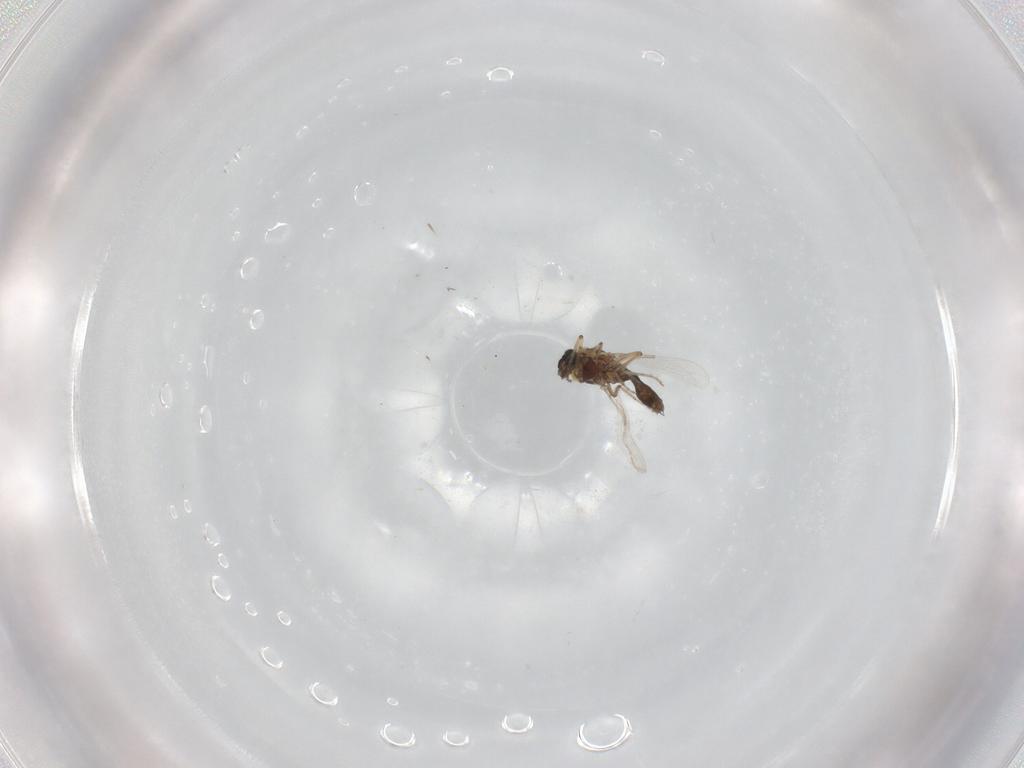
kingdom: Animalia
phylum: Arthropoda
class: Insecta
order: Diptera
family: Ceratopogonidae
